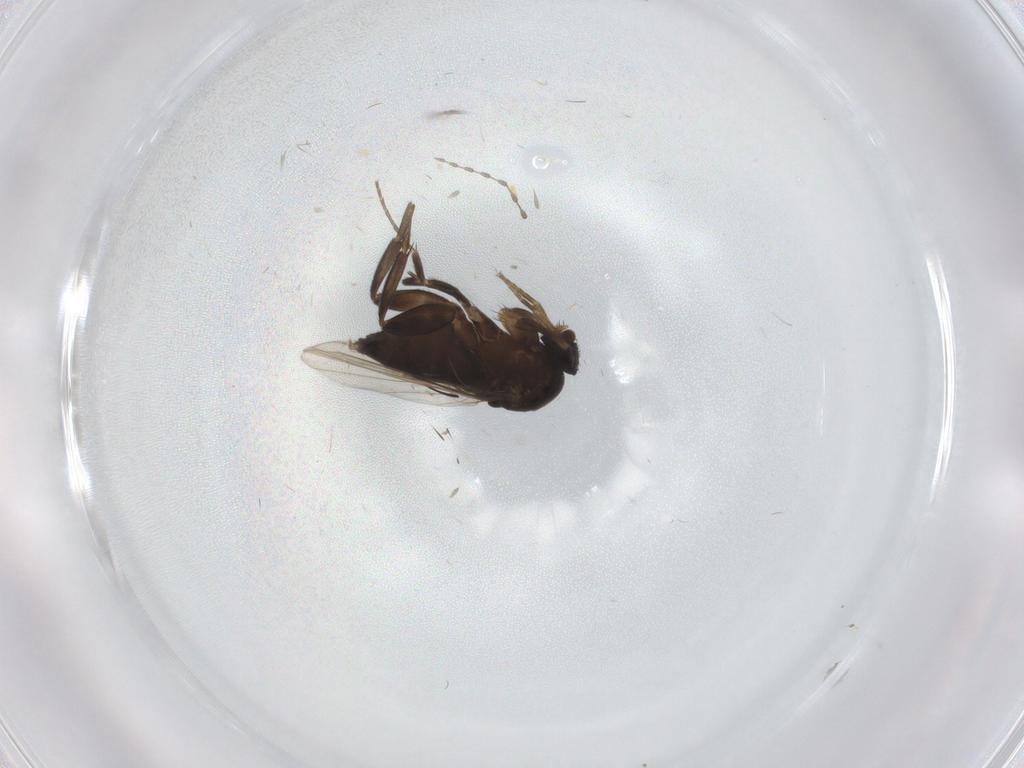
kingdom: Animalia
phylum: Arthropoda
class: Insecta
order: Diptera
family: Phoridae
